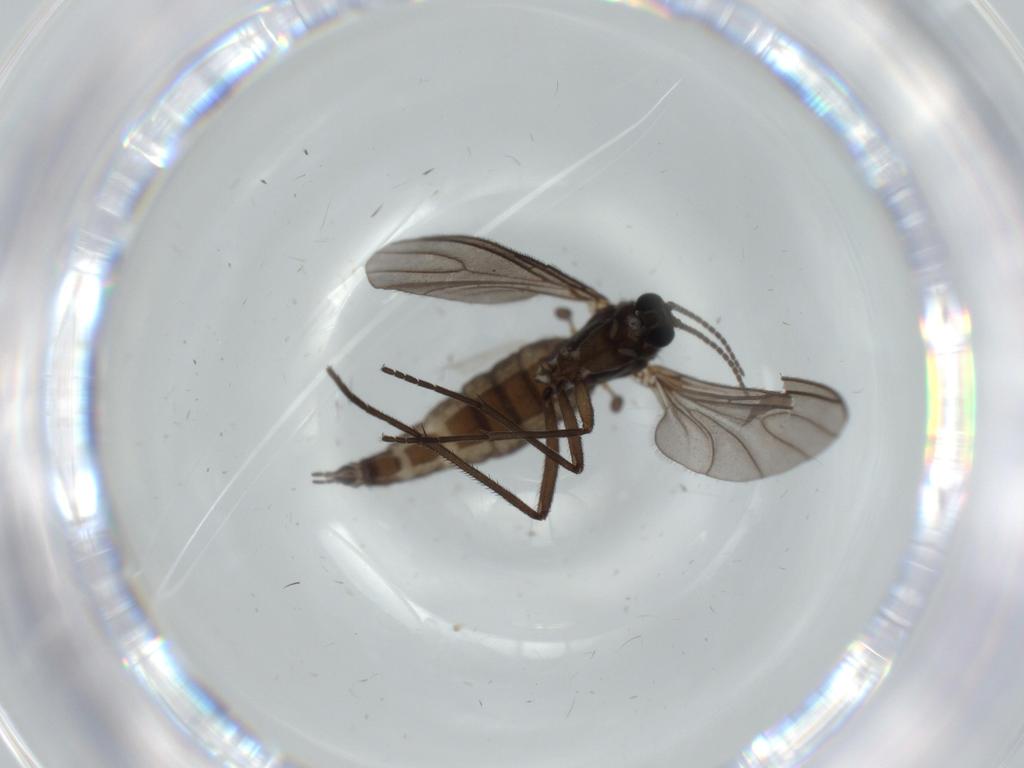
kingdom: Animalia
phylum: Arthropoda
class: Insecta
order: Diptera
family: Sciaridae
